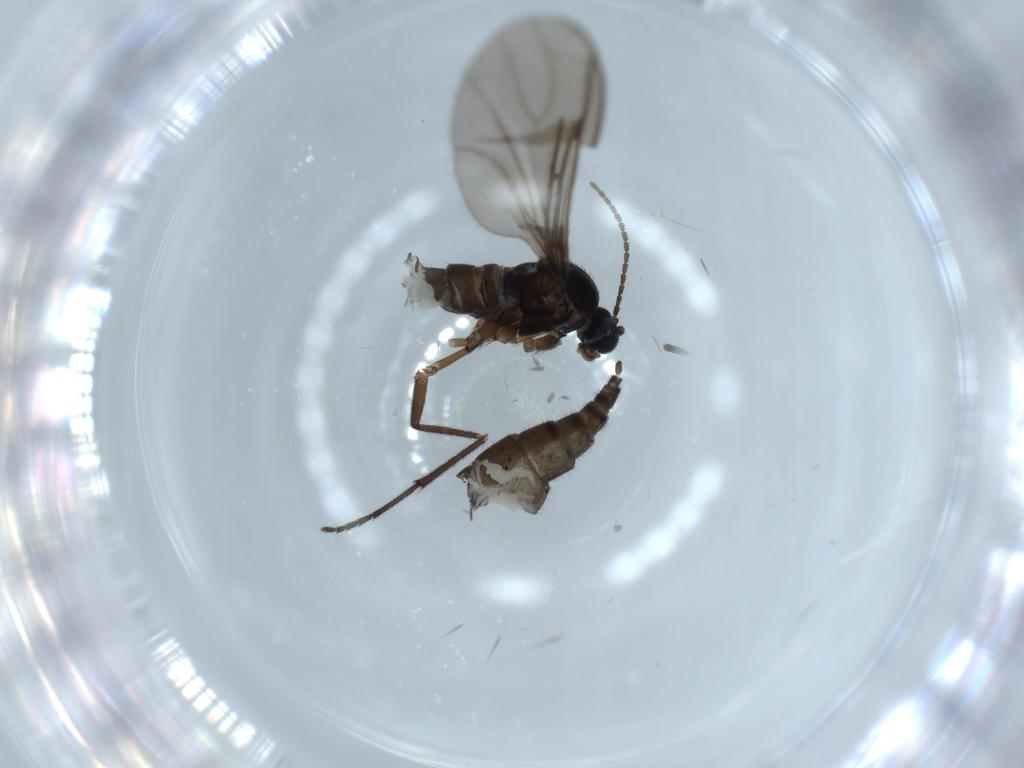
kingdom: Animalia
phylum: Arthropoda
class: Insecta
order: Diptera
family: Sciaridae
